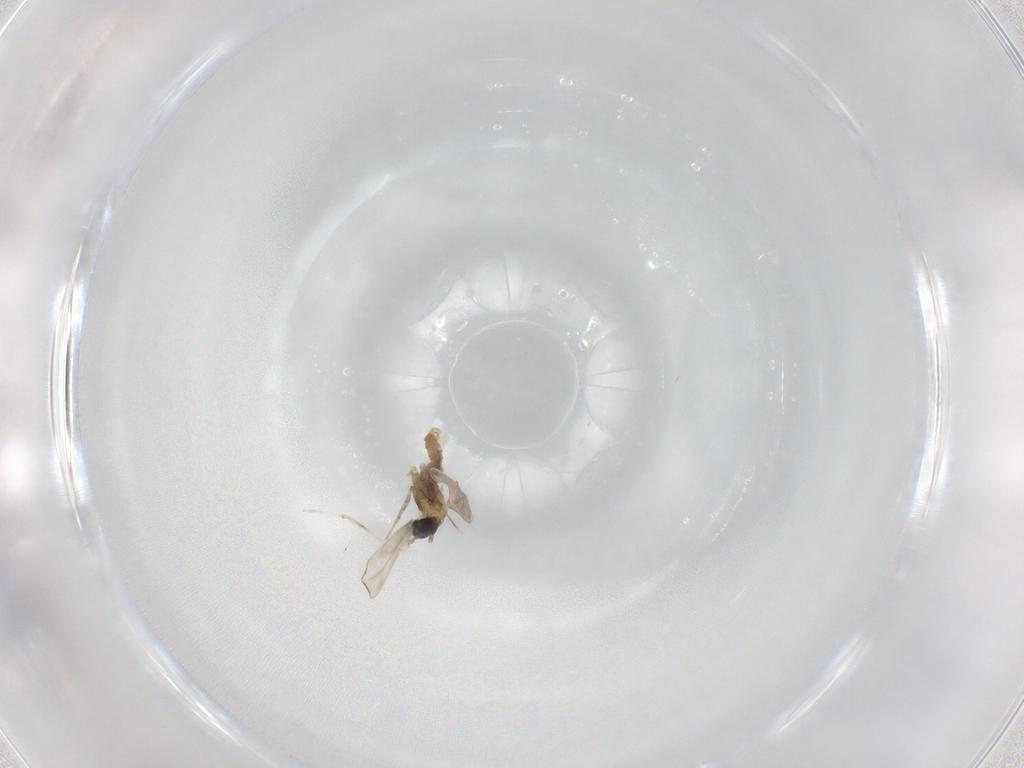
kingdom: Animalia
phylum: Arthropoda
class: Insecta
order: Diptera
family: Cecidomyiidae
